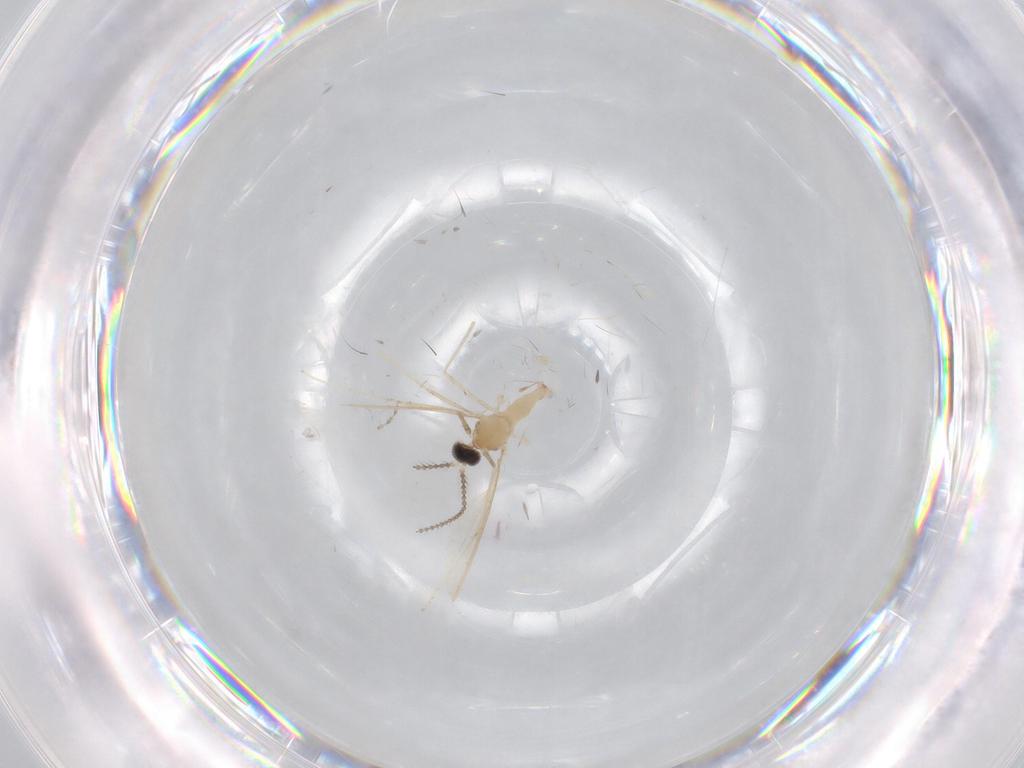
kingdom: Animalia
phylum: Arthropoda
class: Insecta
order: Diptera
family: Cecidomyiidae
